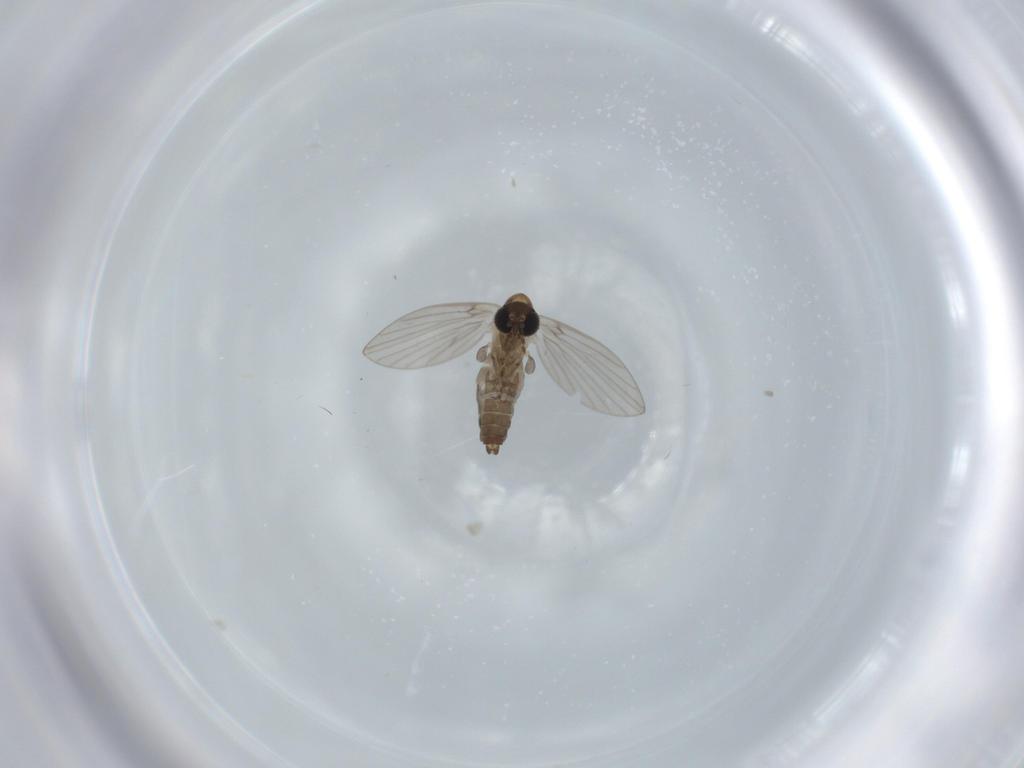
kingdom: Animalia
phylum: Arthropoda
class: Insecta
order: Diptera
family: Psychodidae
